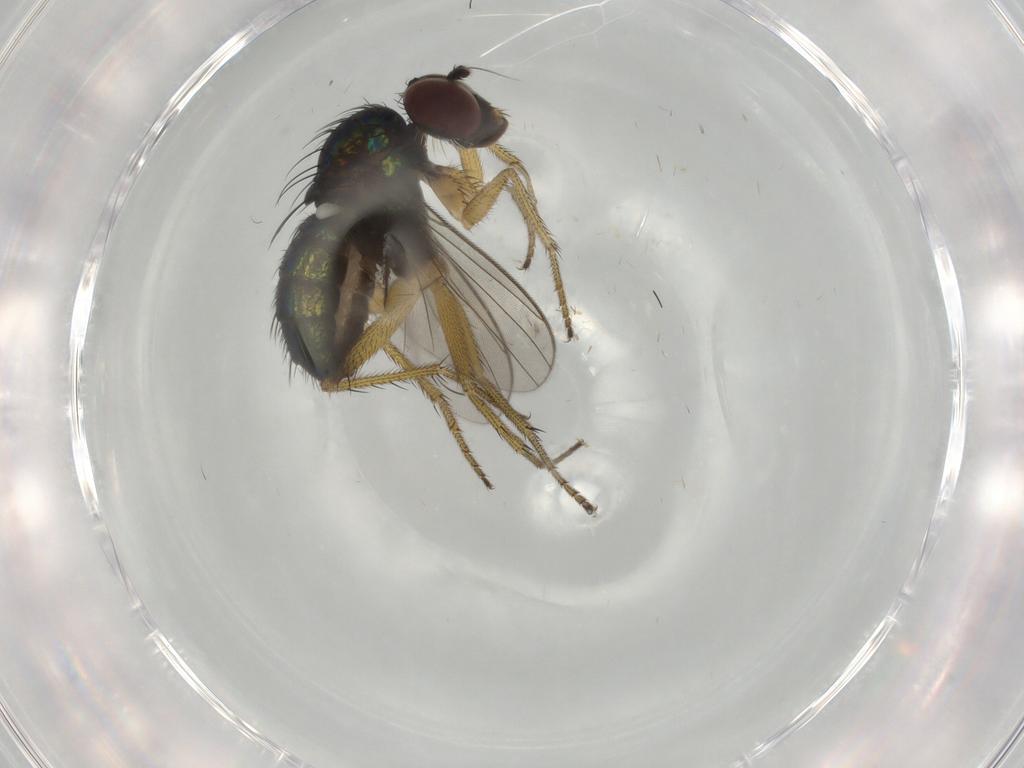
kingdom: Animalia
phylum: Arthropoda
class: Insecta
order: Diptera
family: Dolichopodidae
